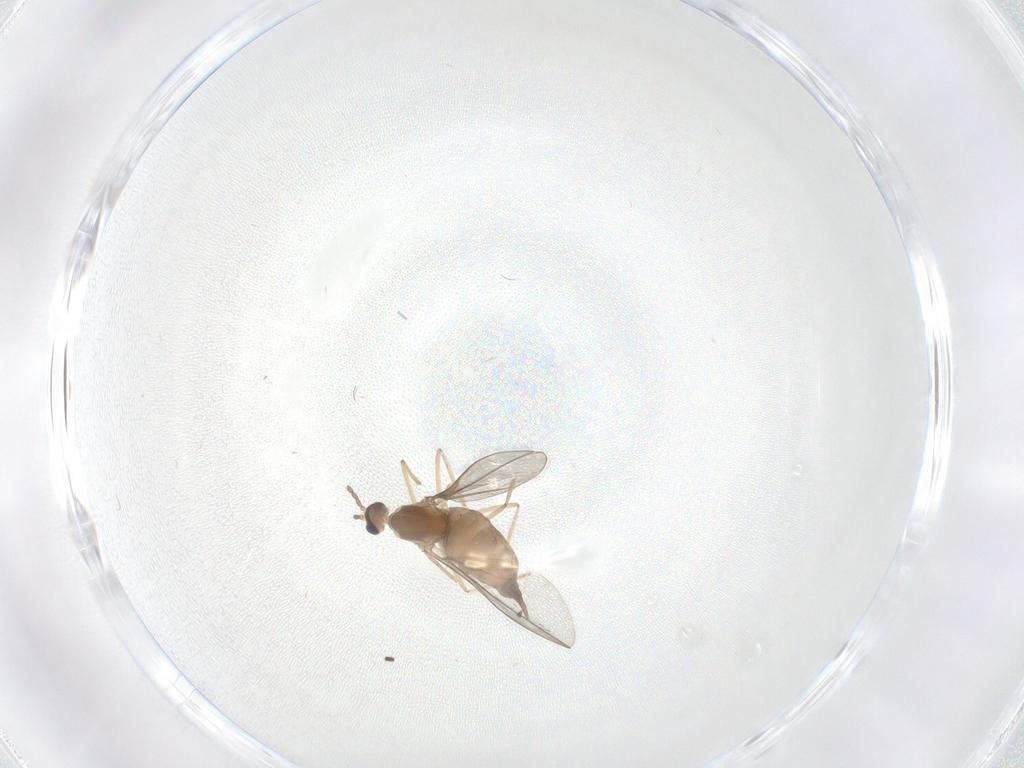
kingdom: Animalia
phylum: Arthropoda
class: Insecta
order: Diptera
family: Ceratopogonidae
